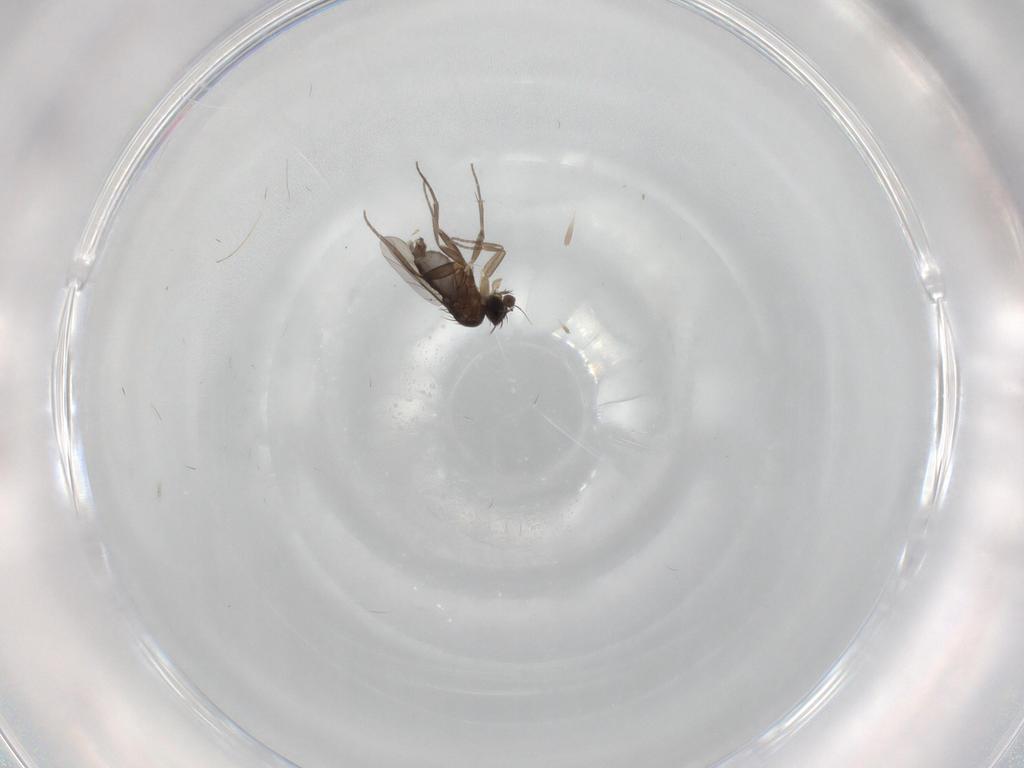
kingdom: Animalia
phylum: Arthropoda
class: Insecta
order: Diptera
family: Phoridae
